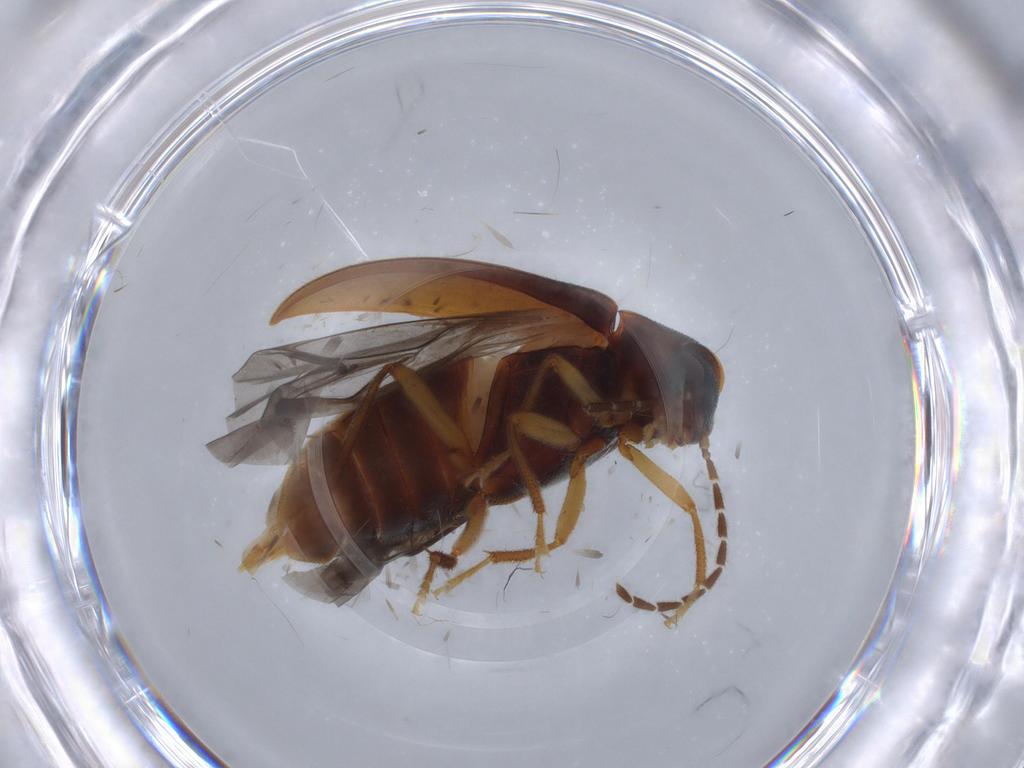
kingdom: Animalia
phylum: Arthropoda
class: Insecta
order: Coleoptera
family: Ptilodactylidae
